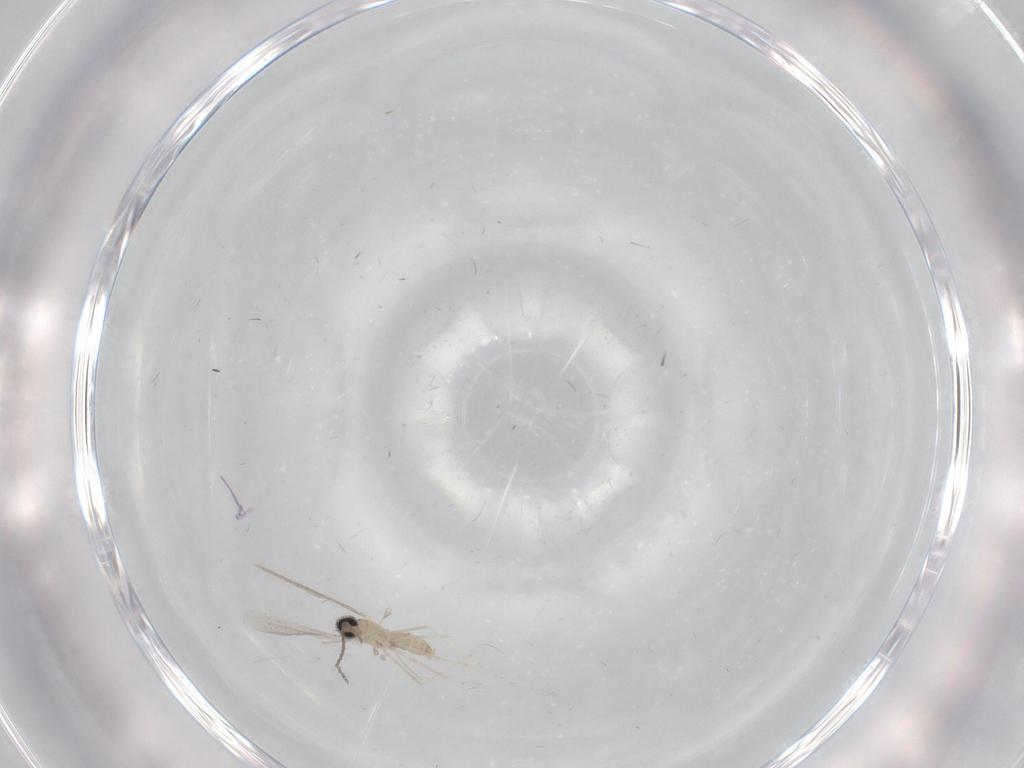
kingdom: Animalia
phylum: Arthropoda
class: Insecta
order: Diptera
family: Cecidomyiidae
